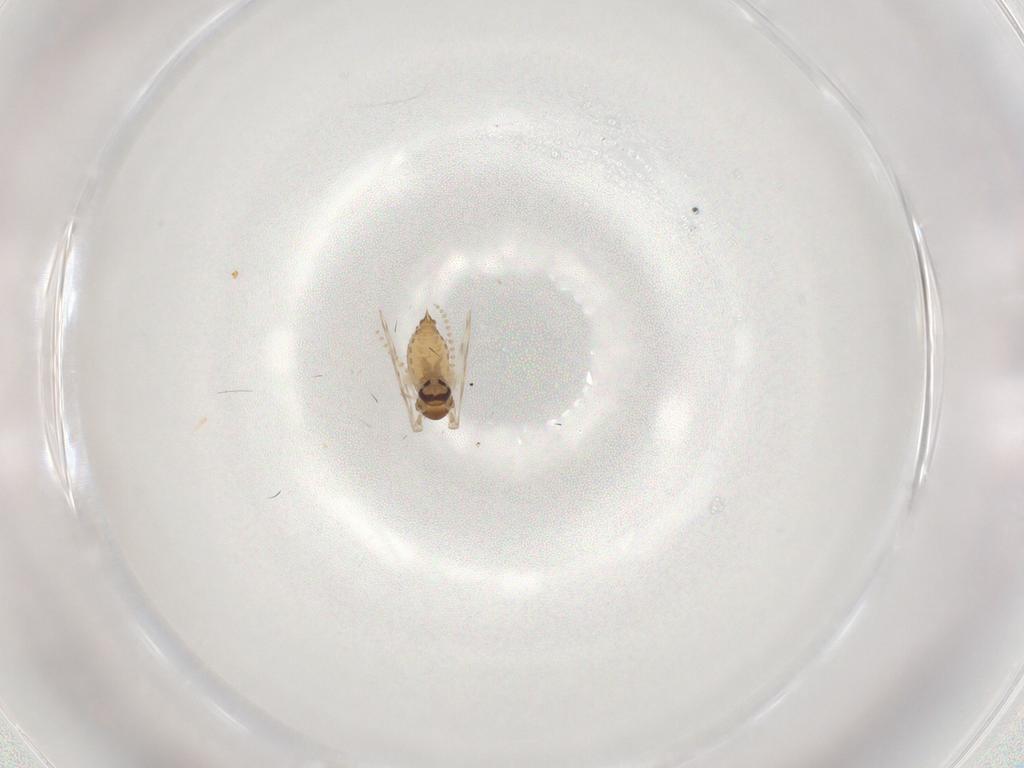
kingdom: Animalia
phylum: Arthropoda
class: Insecta
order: Diptera
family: Psychodidae
